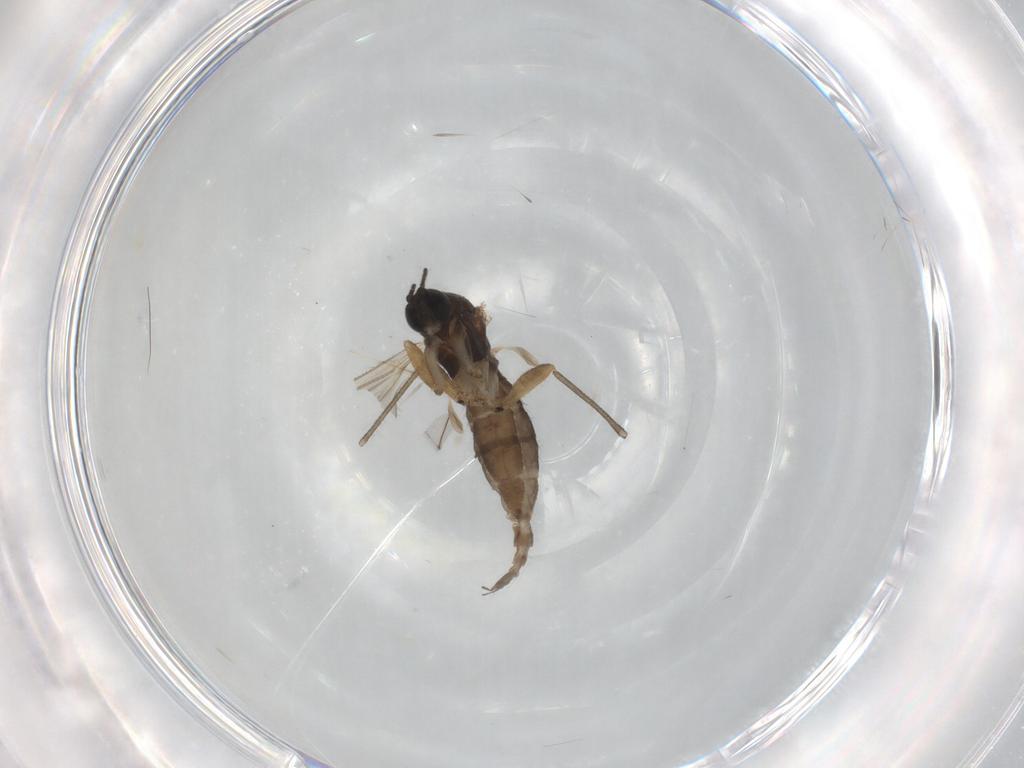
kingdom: Animalia
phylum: Arthropoda
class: Insecta
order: Diptera
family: Sciaridae
